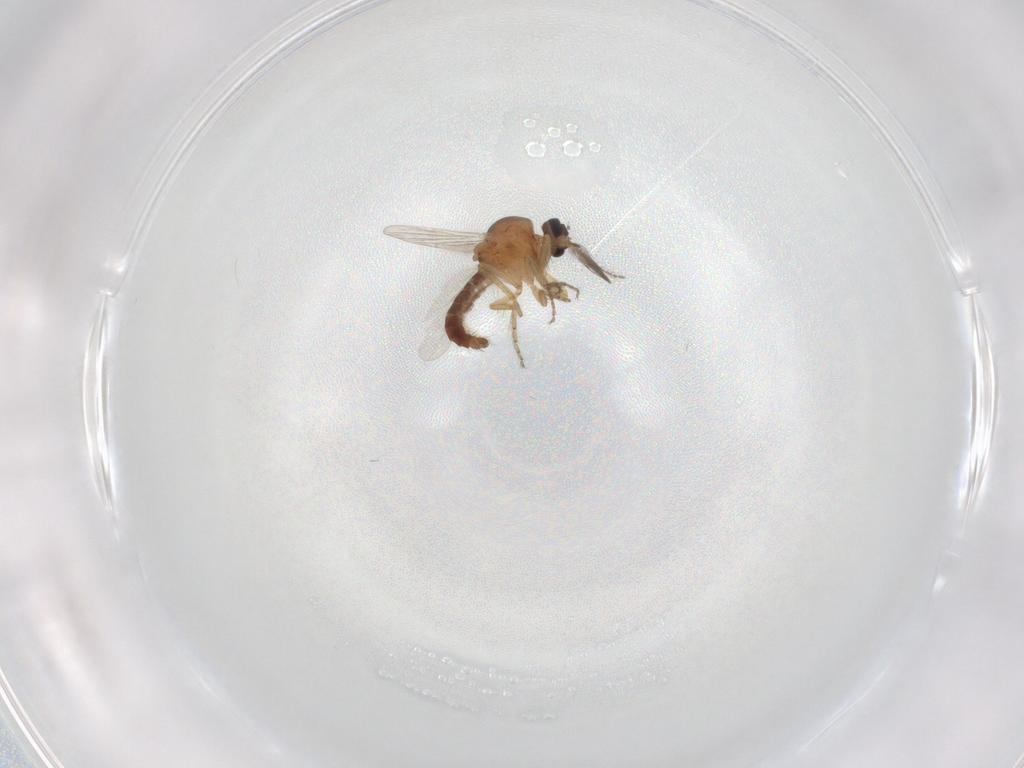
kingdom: Animalia
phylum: Arthropoda
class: Insecta
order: Diptera
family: Ceratopogonidae
